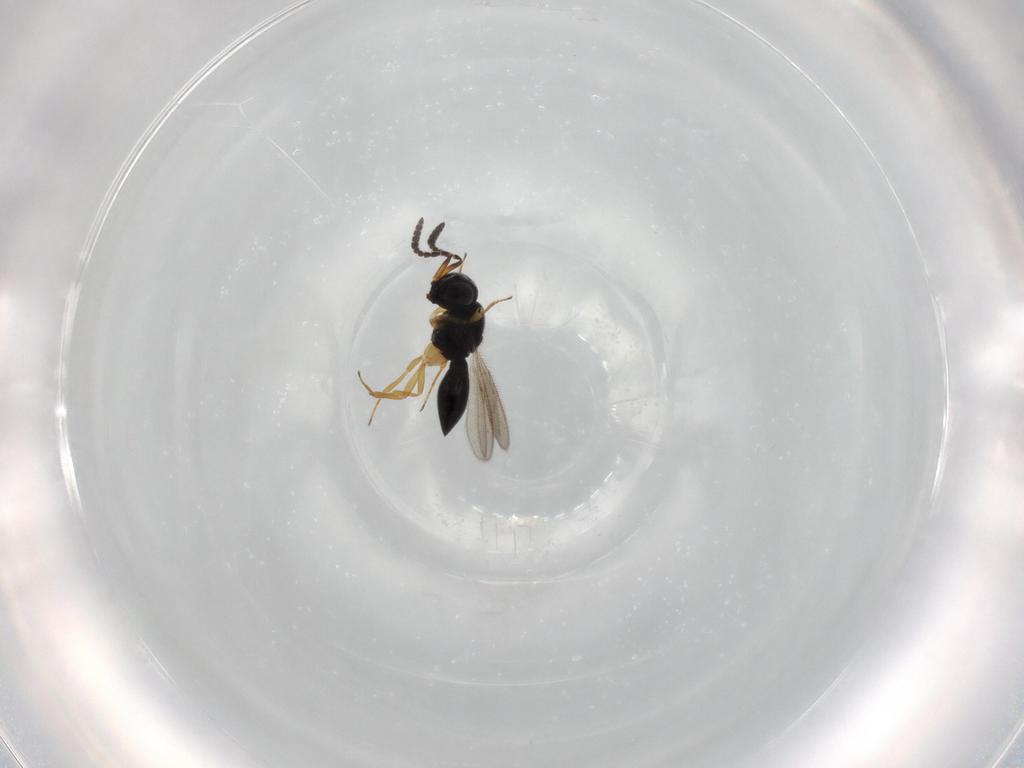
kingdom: Animalia
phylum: Arthropoda
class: Insecta
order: Hymenoptera
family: Scelionidae
